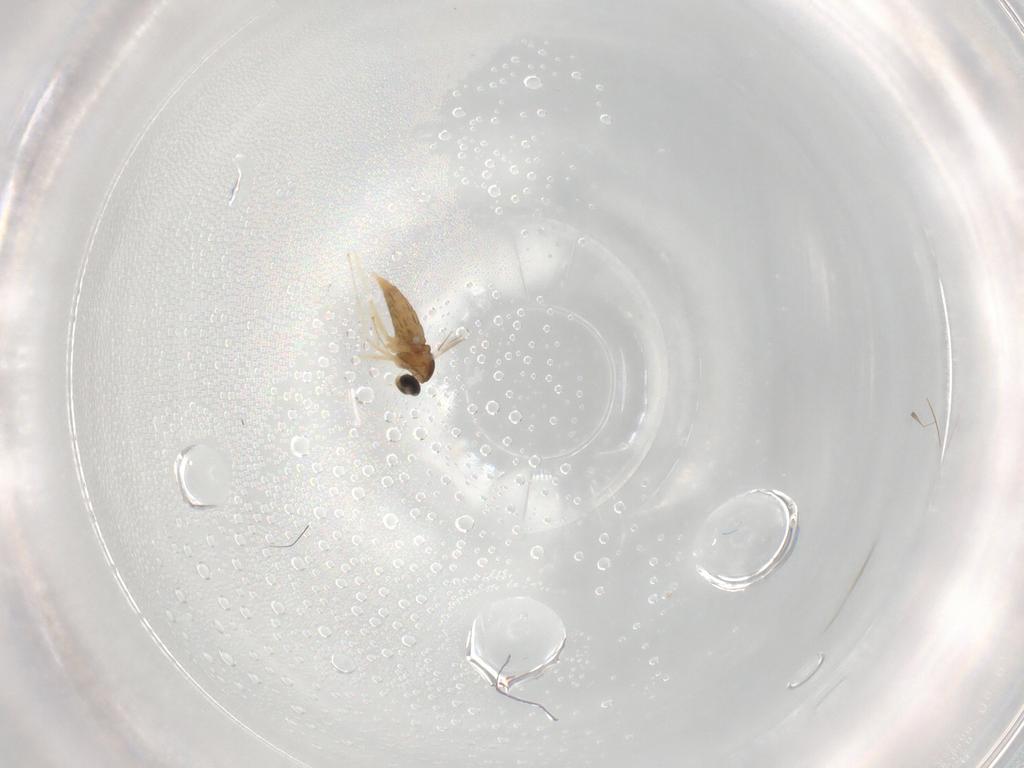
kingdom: Animalia
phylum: Arthropoda
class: Insecta
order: Diptera
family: Cecidomyiidae
